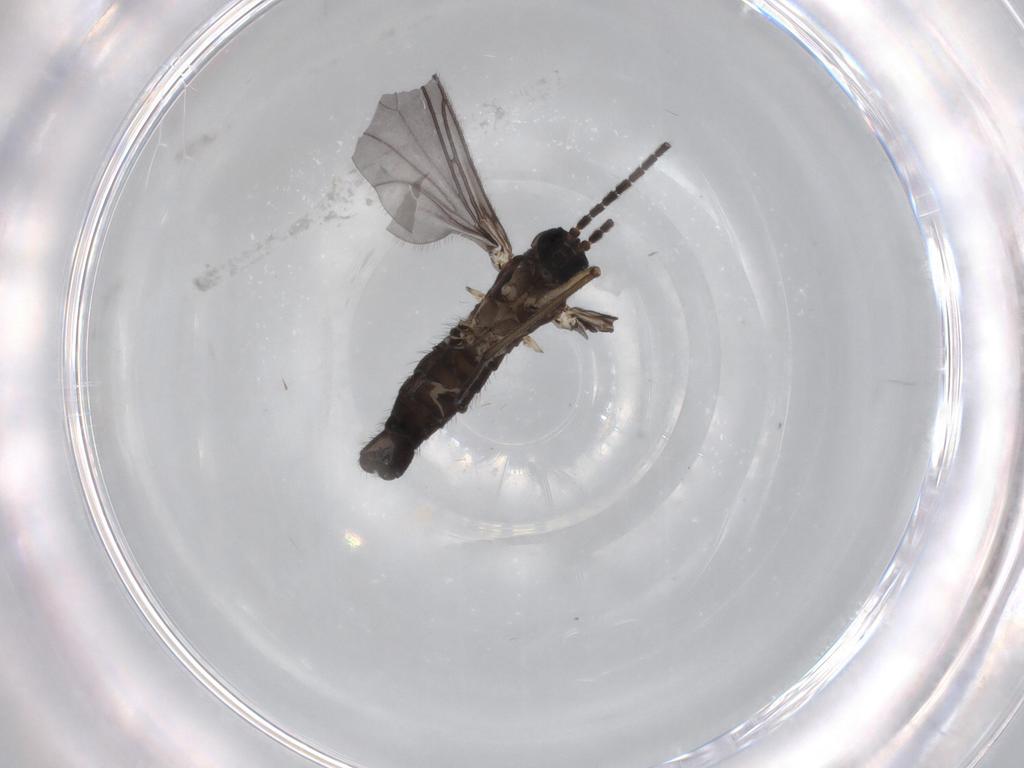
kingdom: Animalia
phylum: Arthropoda
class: Insecta
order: Diptera
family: Sciaridae
